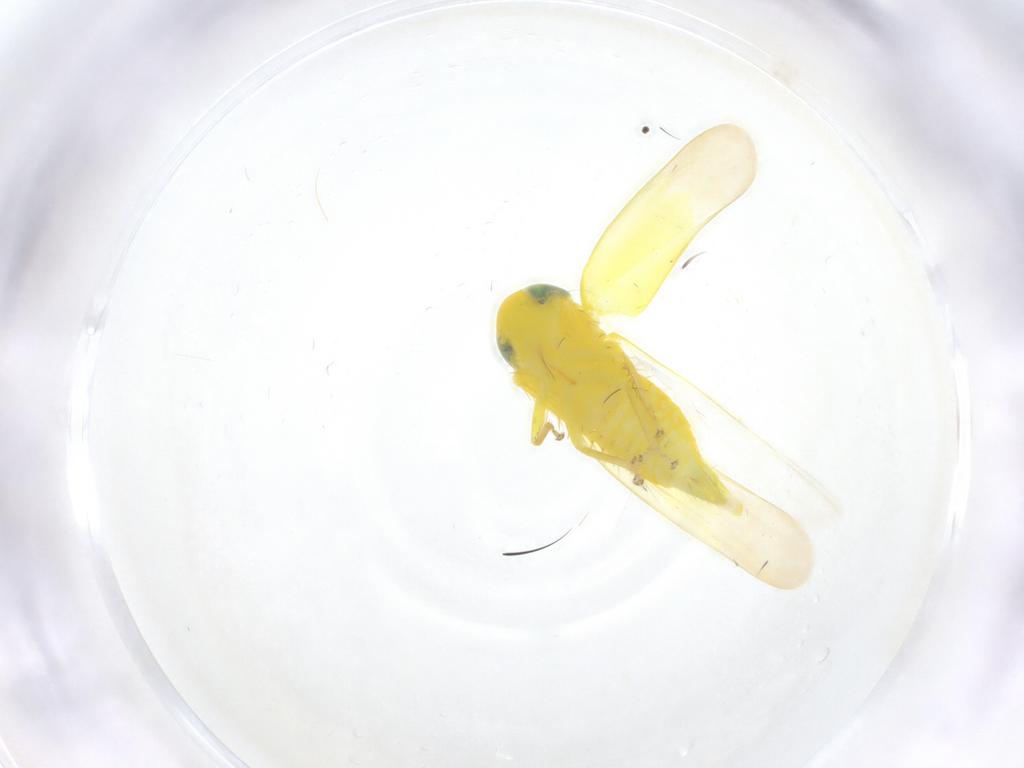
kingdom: Animalia
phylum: Arthropoda
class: Insecta
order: Hemiptera
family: Cicadellidae
